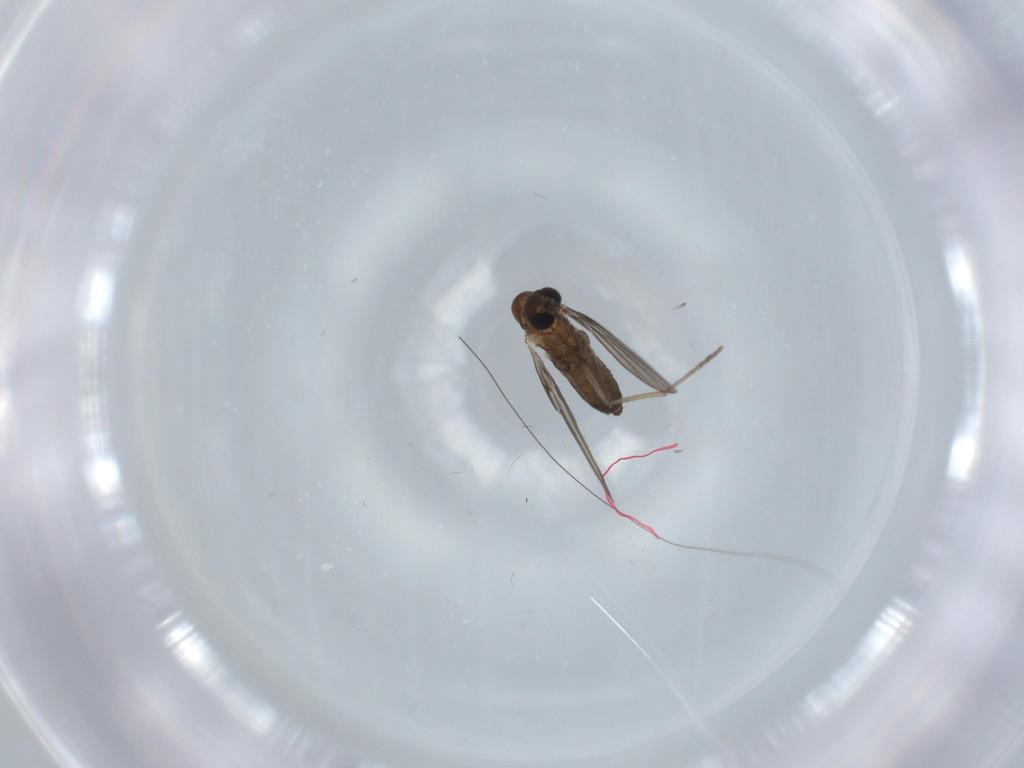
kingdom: Animalia
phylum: Arthropoda
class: Insecta
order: Diptera
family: Psychodidae
